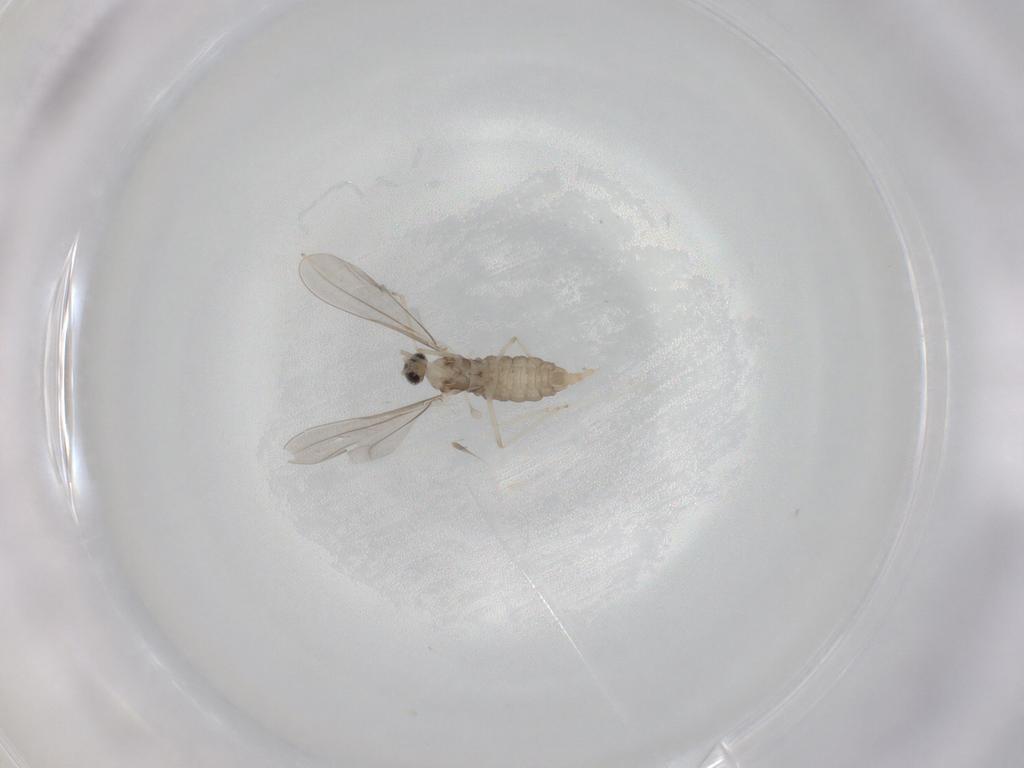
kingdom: Animalia
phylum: Arthropoda
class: Insecta
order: Diptera
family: Cecidomyiidae
